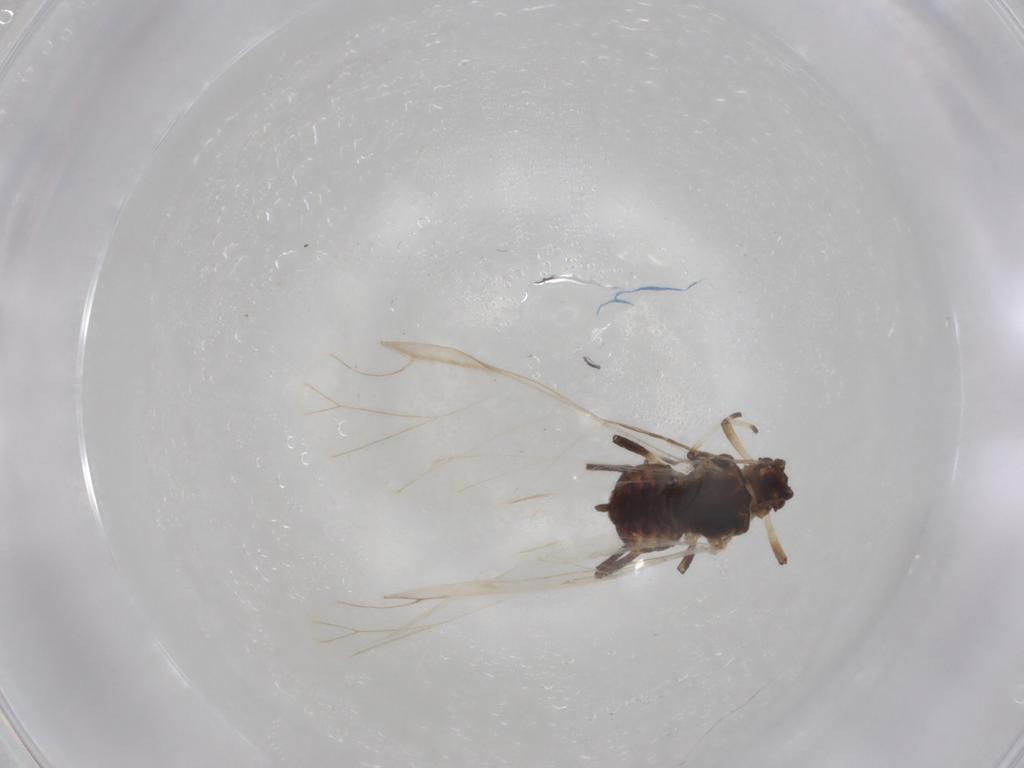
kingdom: Animalia
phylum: Arthropoda
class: Insecta
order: Hemiptera
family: Aphididae
